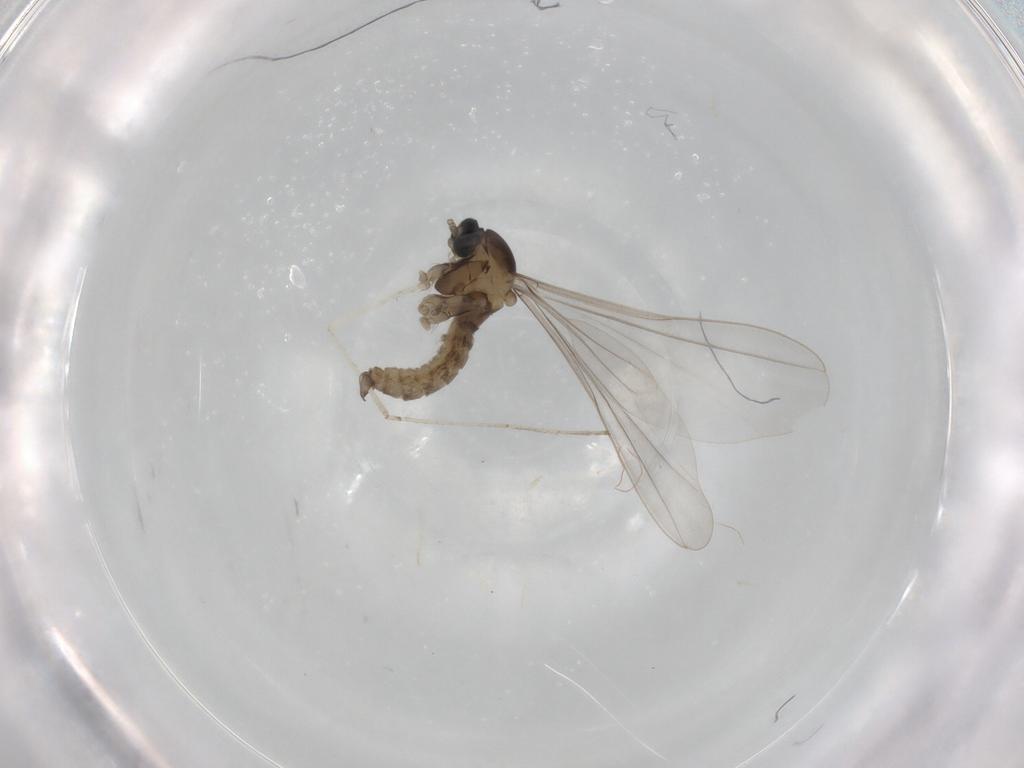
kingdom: Animalia
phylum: Arthropoda
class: Insecta
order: Diptera
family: Cecidomyiidae
